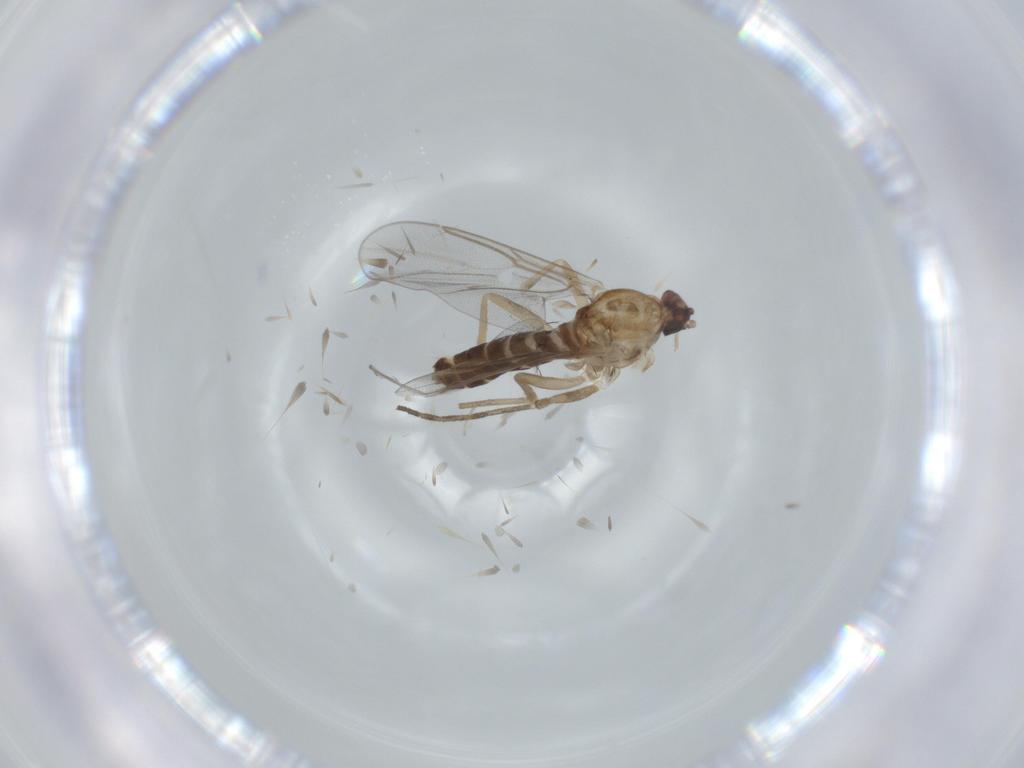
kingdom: Animalia
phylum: Arthropoda
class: Insecta
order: Diptera
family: Cecidomyiidae
